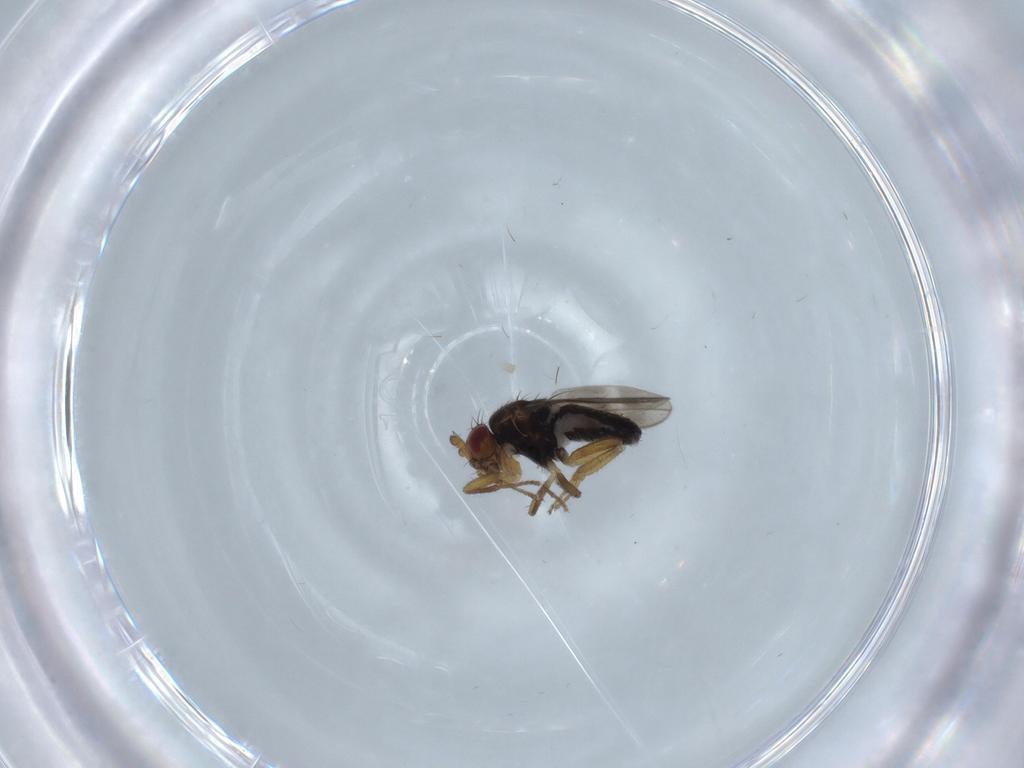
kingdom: Animalia
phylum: Arthropoda
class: Insecta
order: Diptera
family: Sphaeroceridae
